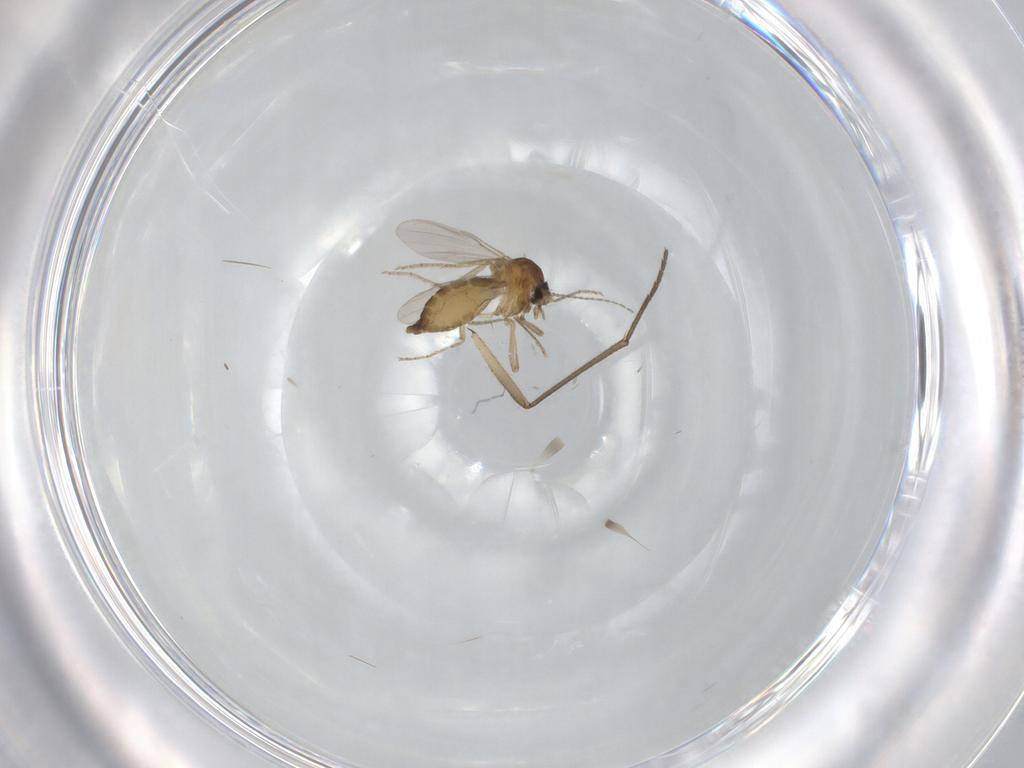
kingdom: Animalia
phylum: Arthropoda
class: Insecta
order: Diptera
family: Ceratopogonidae
